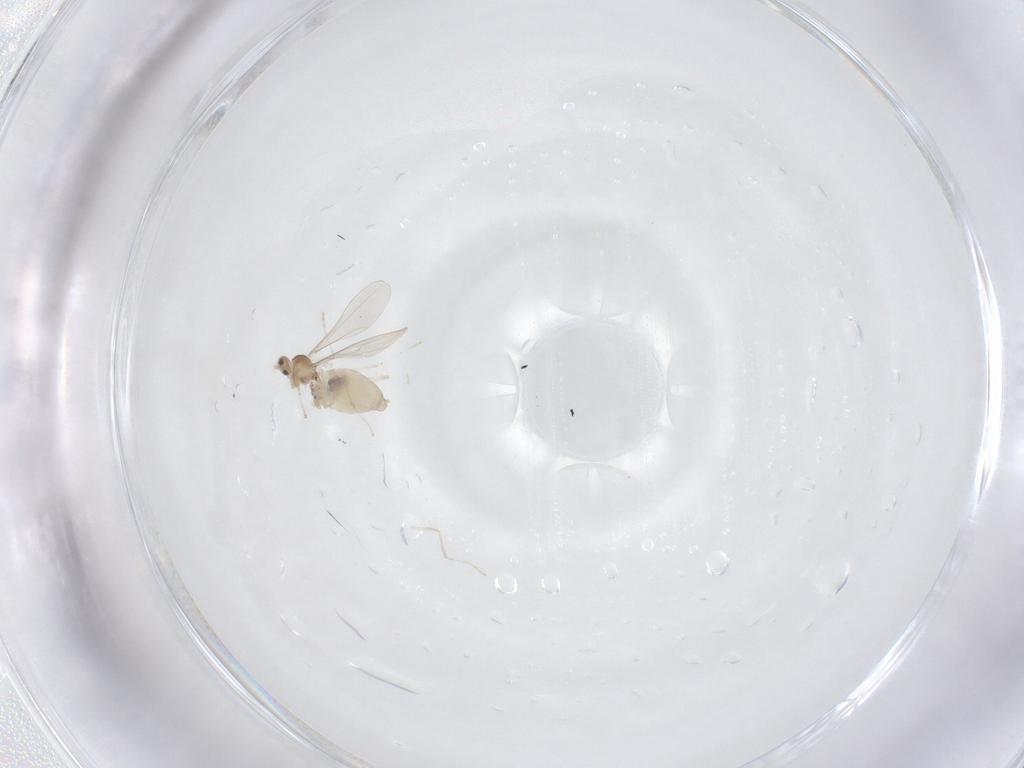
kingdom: Animalia
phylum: Arthropoda
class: Insecta
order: Diptera
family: Cecidomyiidae
